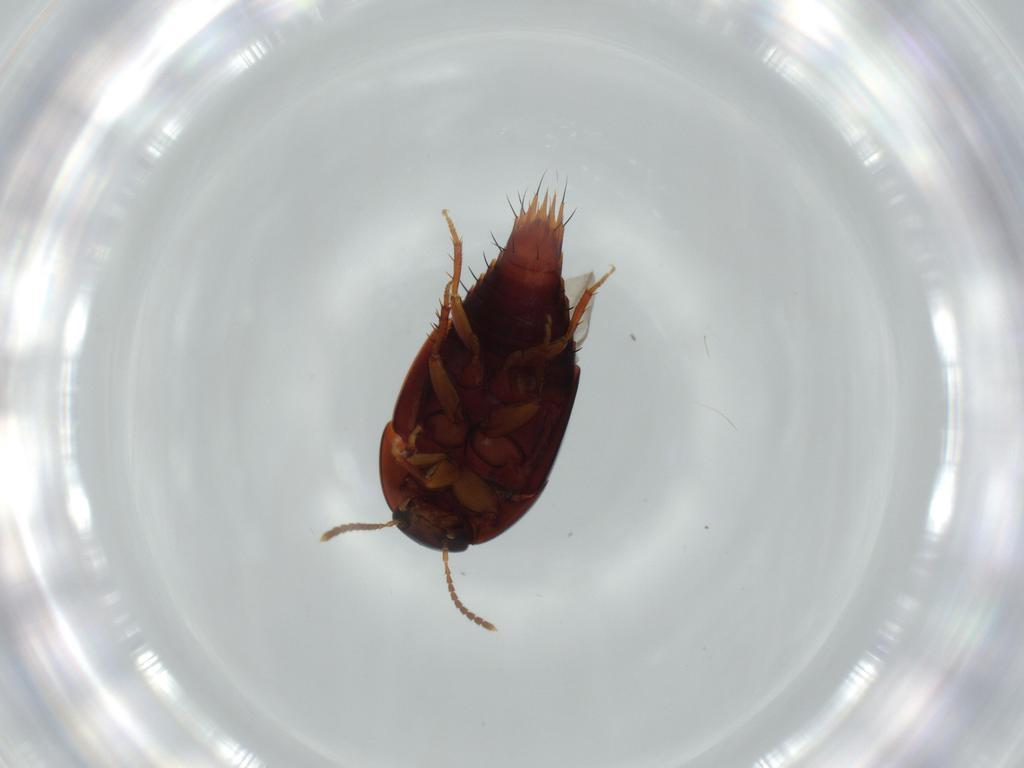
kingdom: Animalia
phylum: Arthropoda
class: Insecta
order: Coleoptera
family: Staphylinidae
